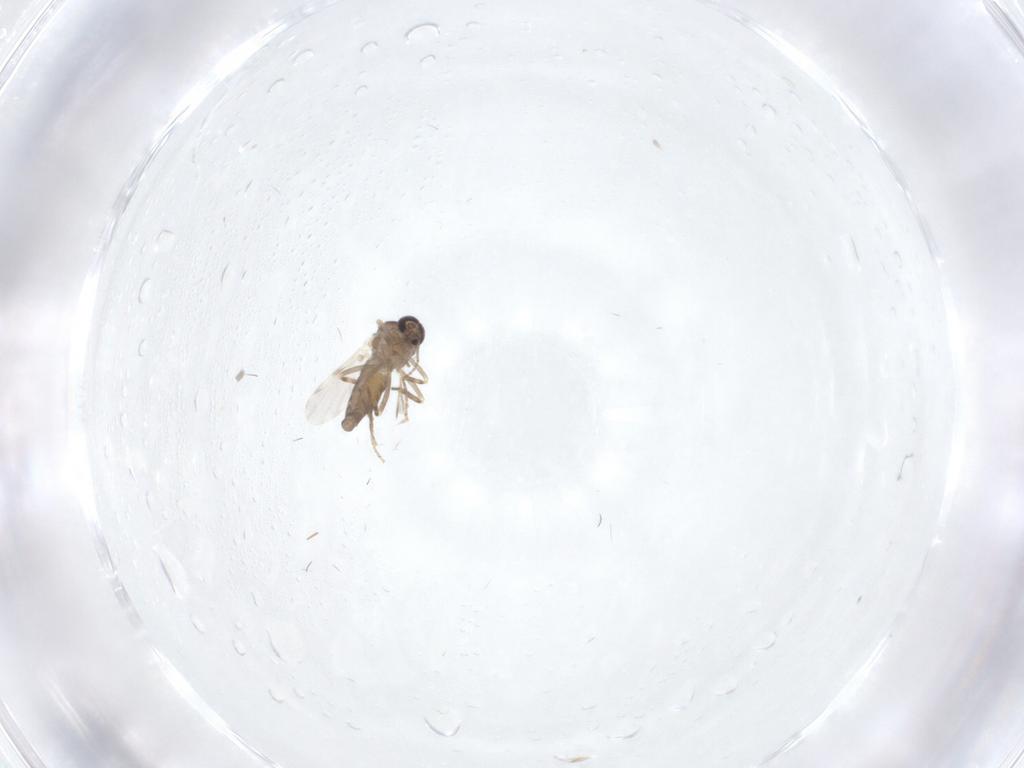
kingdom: Animalia
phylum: Arthropoda
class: Insecta
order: Diptera
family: Ceratopogonidae
